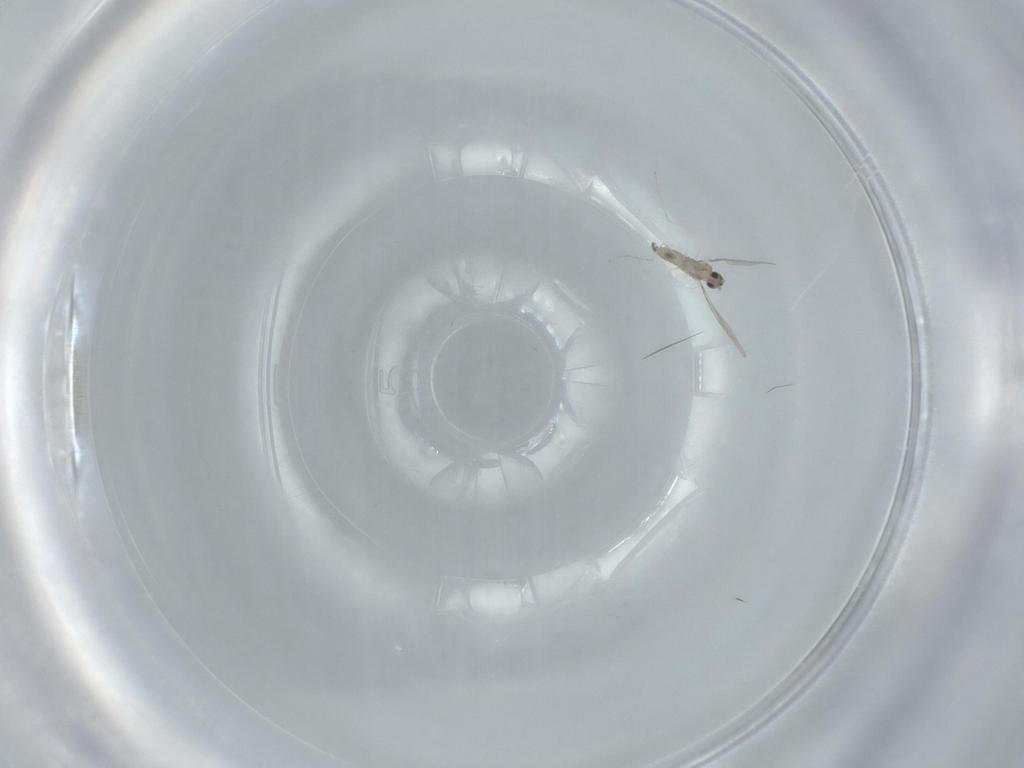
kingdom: Animalia
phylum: Arthropoda
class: Insecta
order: Diptera
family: Cecidomyiidae
